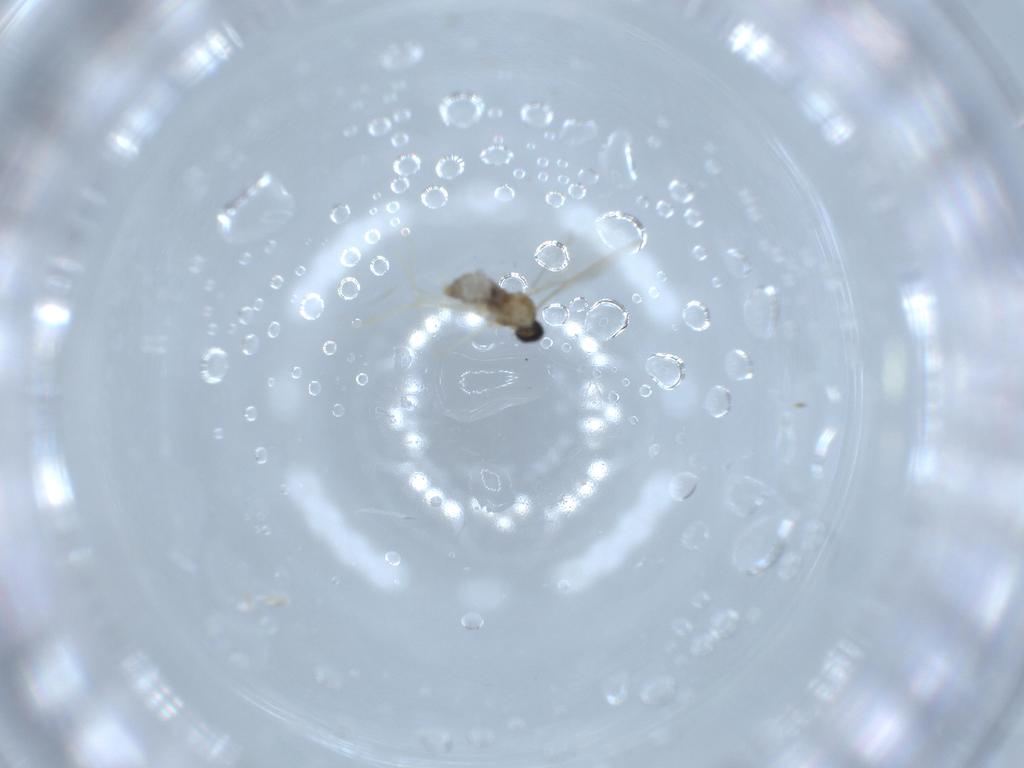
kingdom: Animalia
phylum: Arthropoda
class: Insecta
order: Diptera
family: Cecidomyiidae
